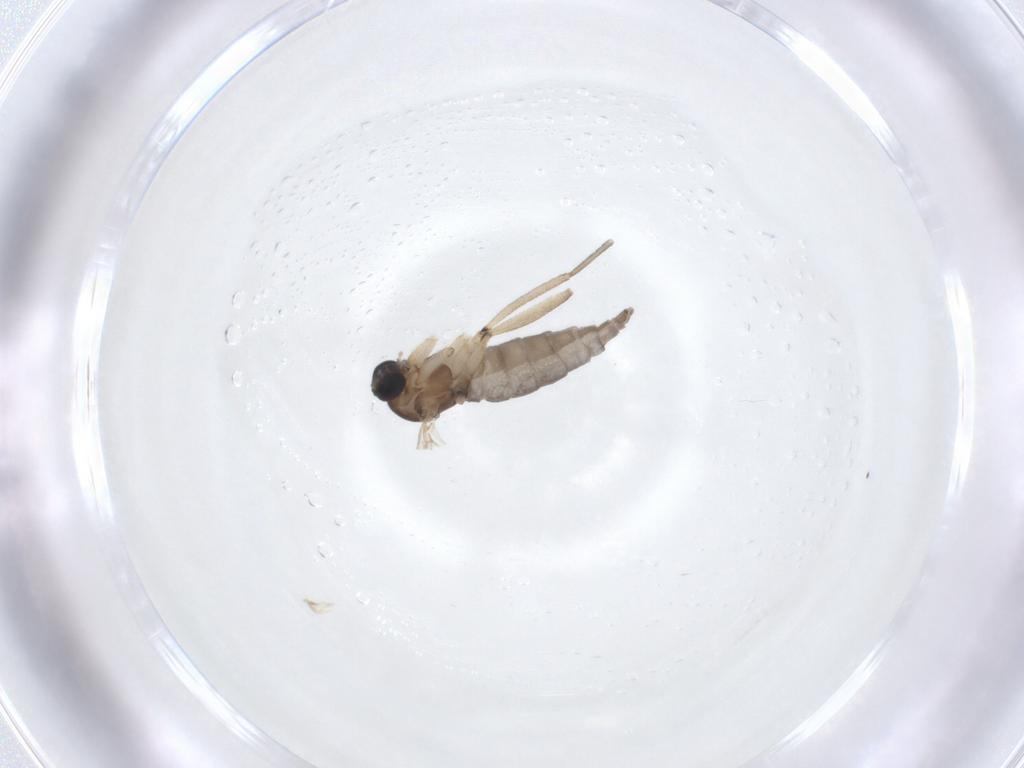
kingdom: Animalia
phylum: Arthropoda
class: Insecta
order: Diptera
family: Sciaridae
